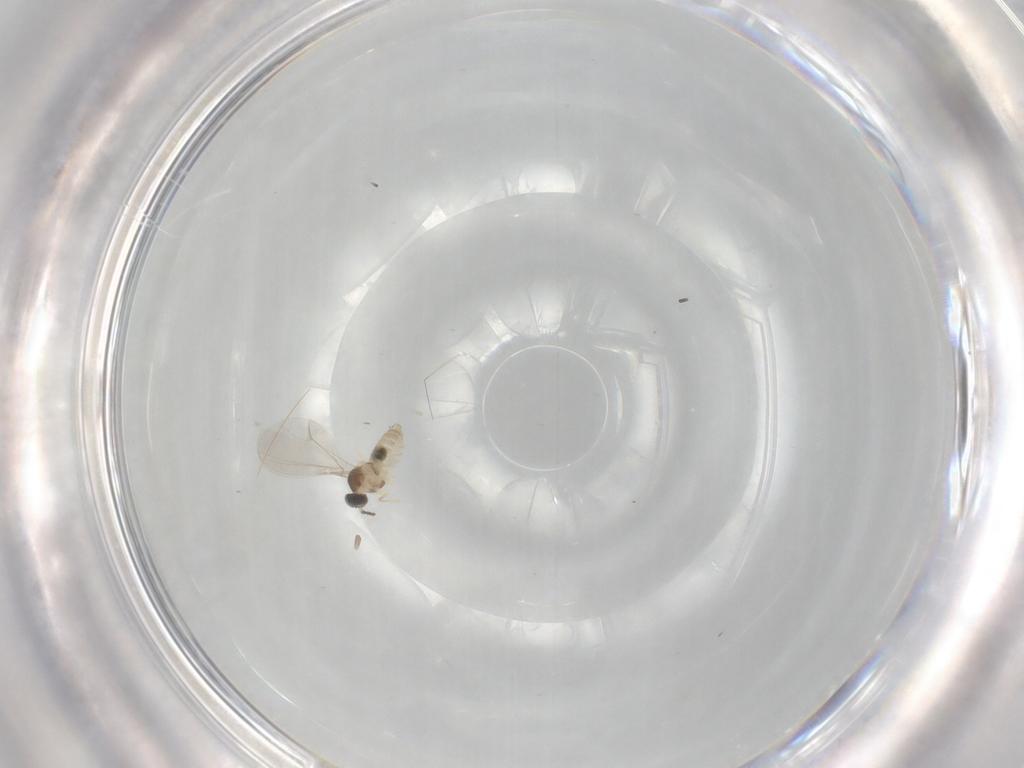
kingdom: Animalia
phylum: Arthropoda
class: Insecta
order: Diptera
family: Cecidomyiidae
